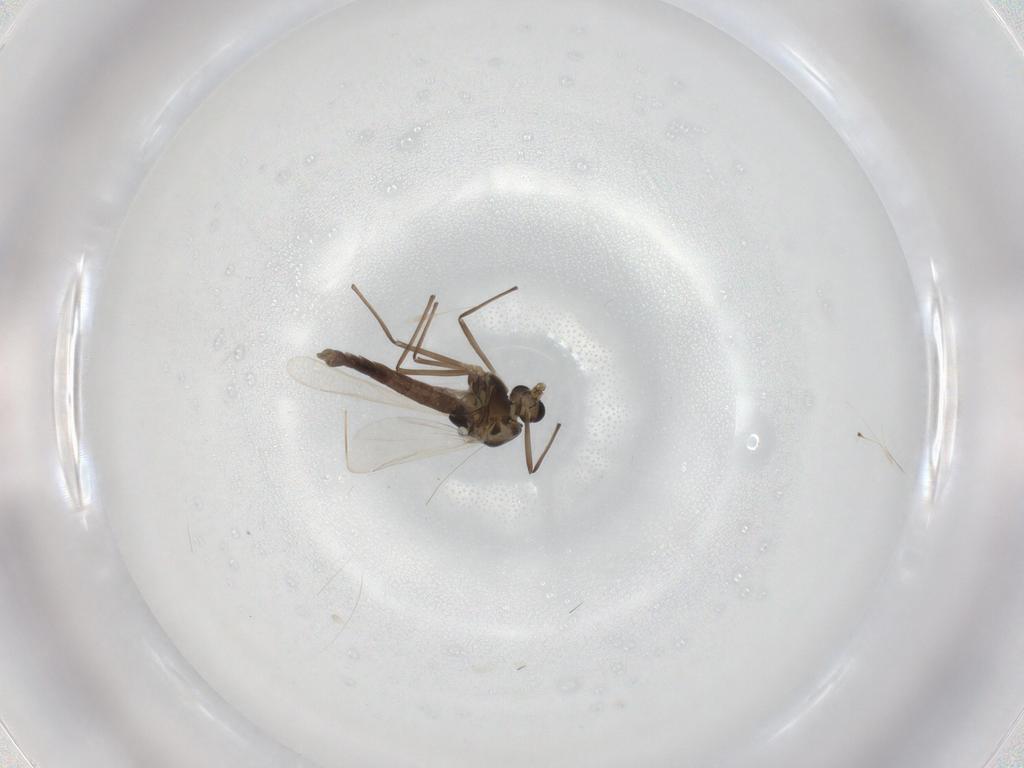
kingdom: Animalia
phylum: Arthropoda
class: Insecta
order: Diptera
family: Chironomidae
